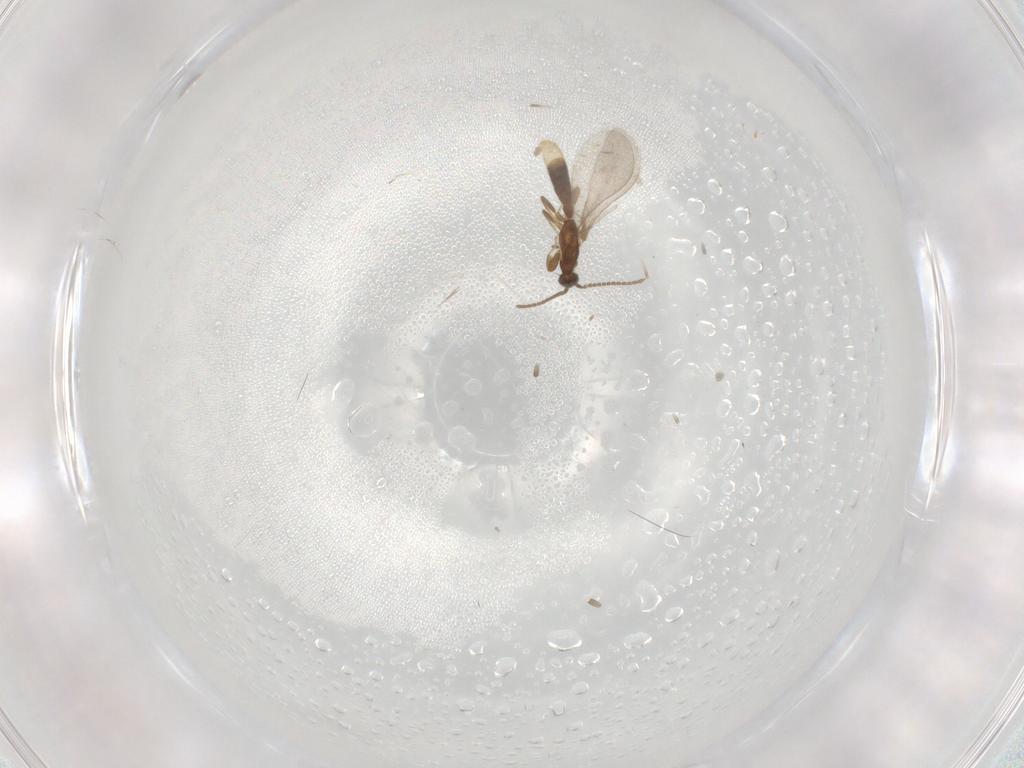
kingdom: Animalia
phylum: Arthropoda
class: Insecta
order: Hymenoptera
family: Formicidae
